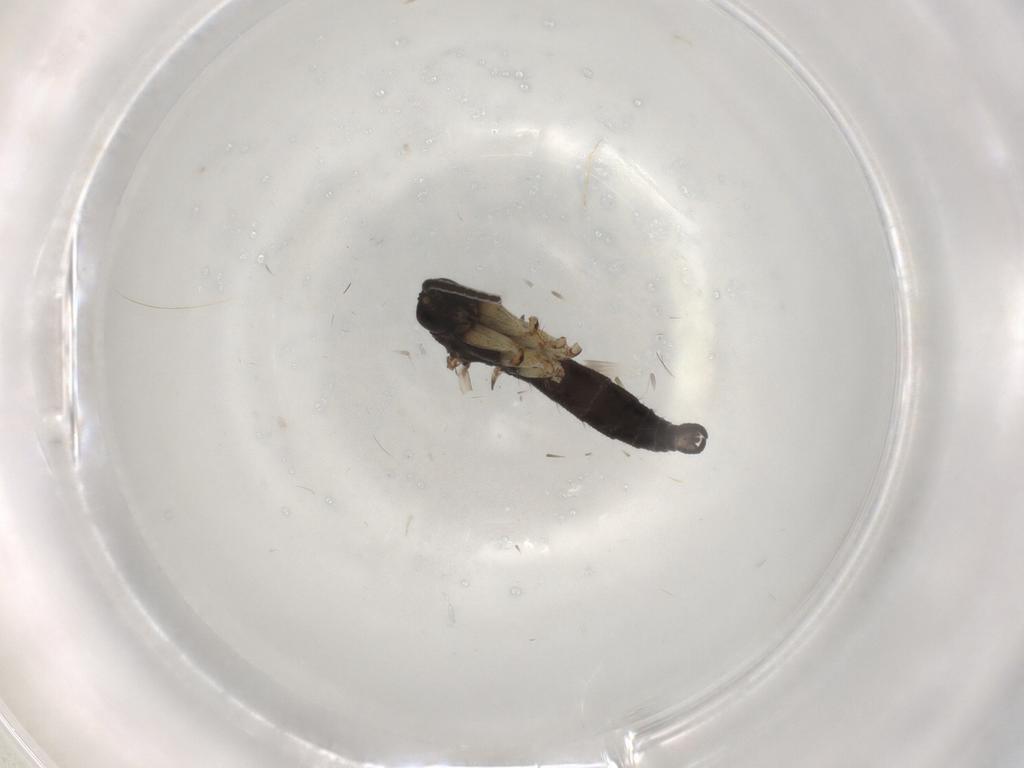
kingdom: Animalia
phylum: Arthropoda
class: Insecta
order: Diptera
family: Sciaridae
